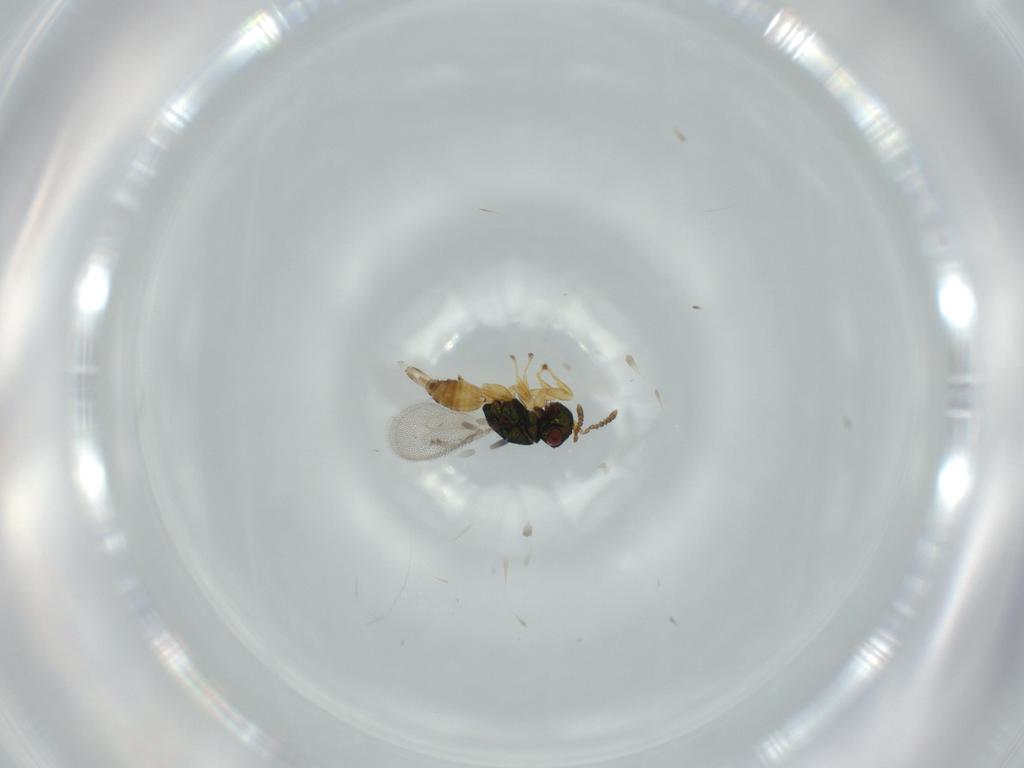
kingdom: Animalia
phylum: Arthropoda
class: Insecta
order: Hymenoptera
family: Pteromalidae
